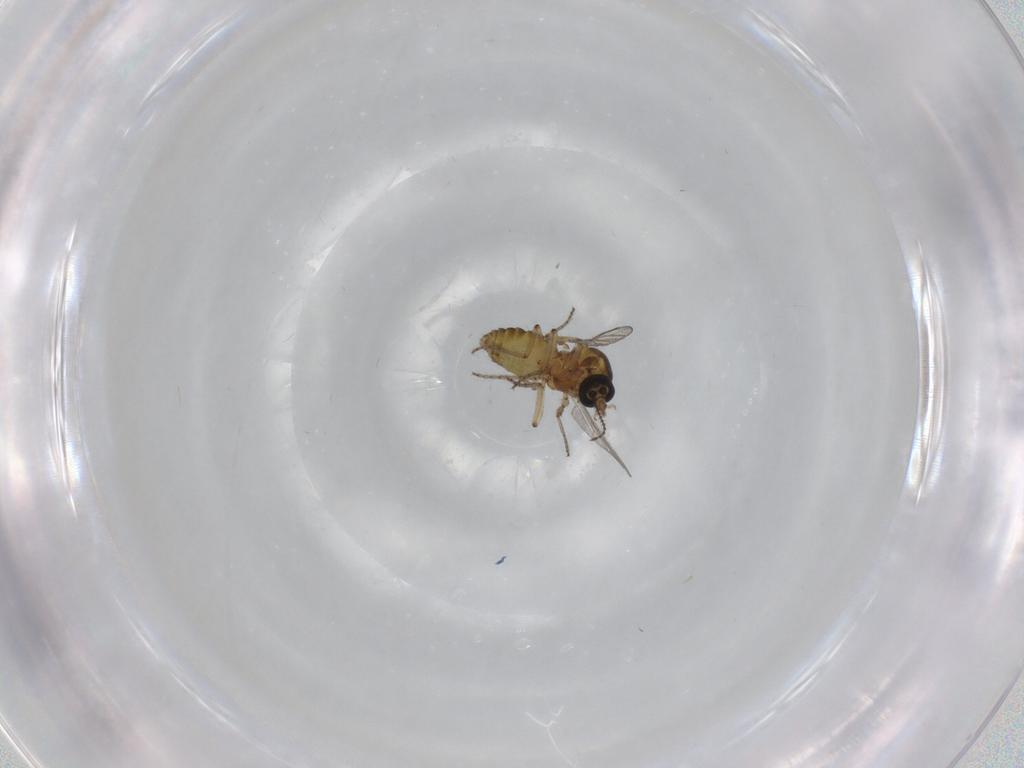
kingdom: Animalia
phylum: Arthropoda
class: Insecta
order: Diptera
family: Ceratopogonidae
